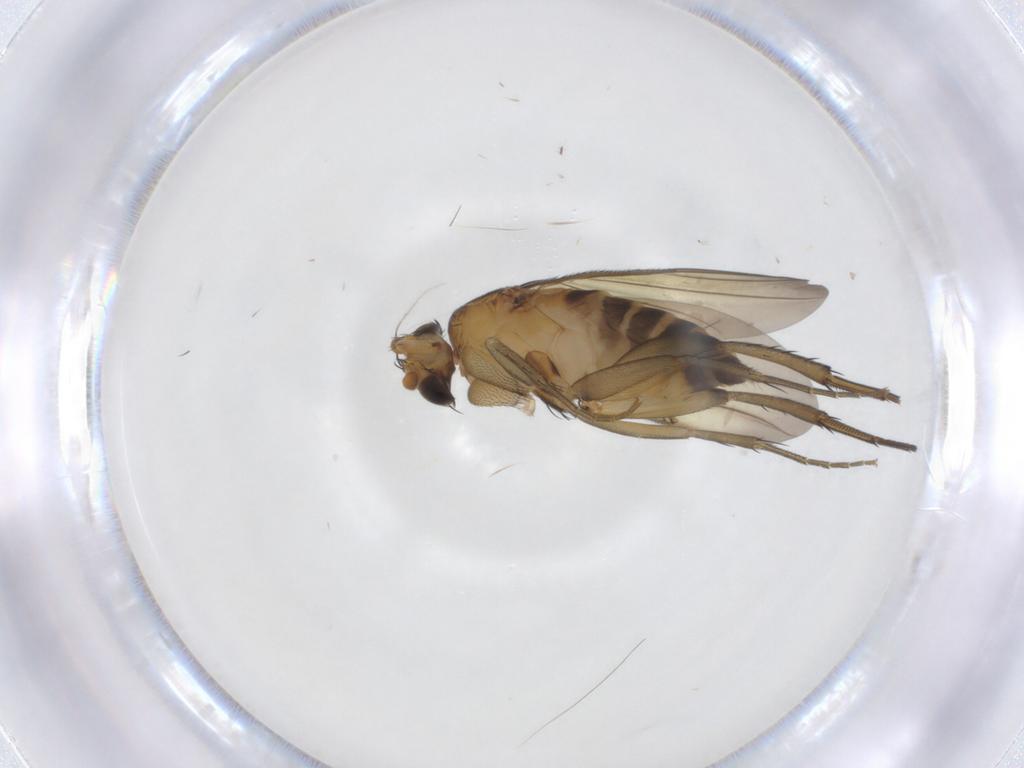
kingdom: Animalia
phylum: Arthropoda
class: Insecta
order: Diptera
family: Phoridae
